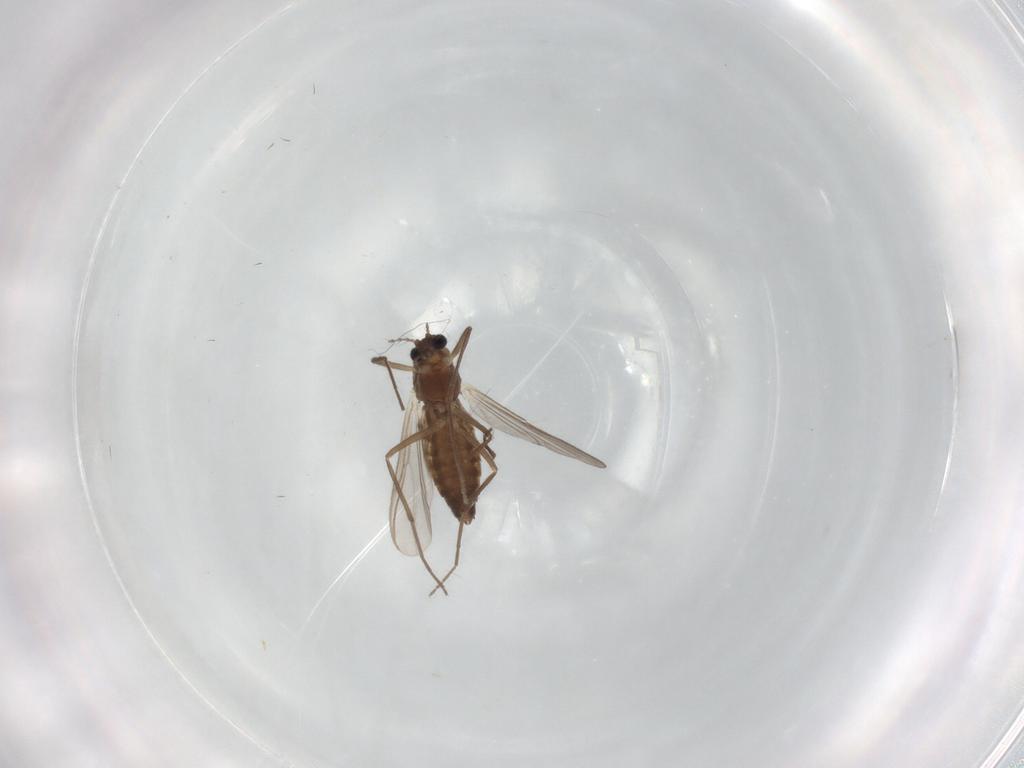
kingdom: Animalia
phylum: Arthropoda
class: Insecta
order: Diptera
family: Chironomidae
